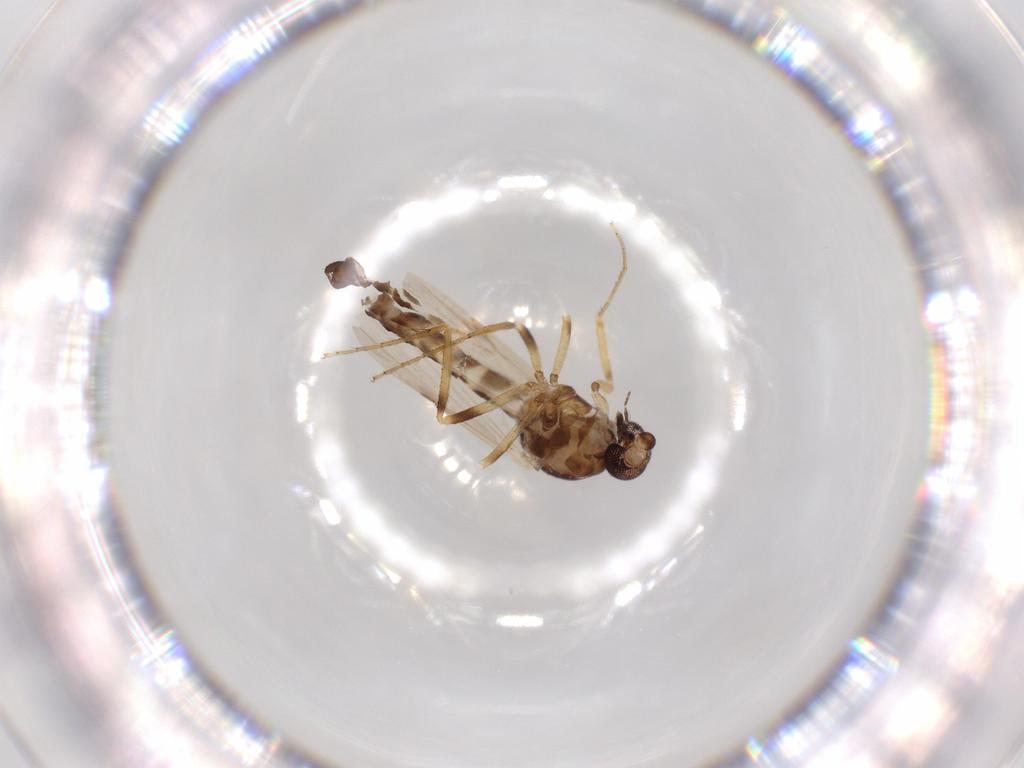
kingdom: Animalia
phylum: Arthropoda
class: Insecta
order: Diptera
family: Ceratopogonidae
